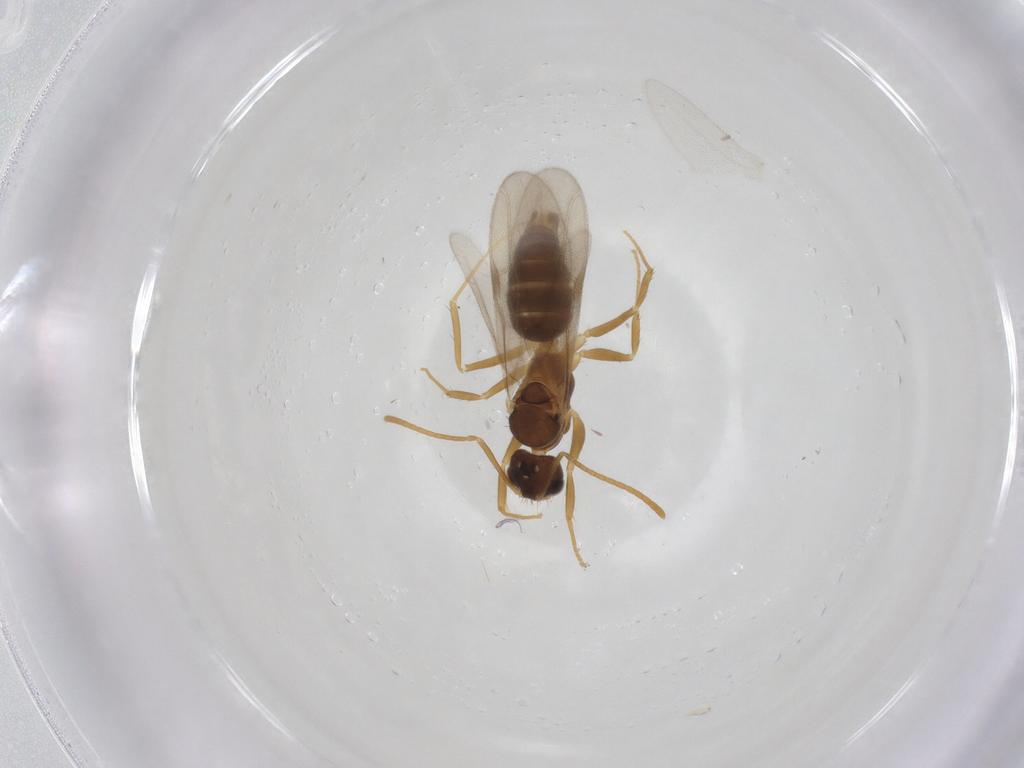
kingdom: Animalia
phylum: Arthropoda
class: Insecta
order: Hymenoptera
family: Formicidae
